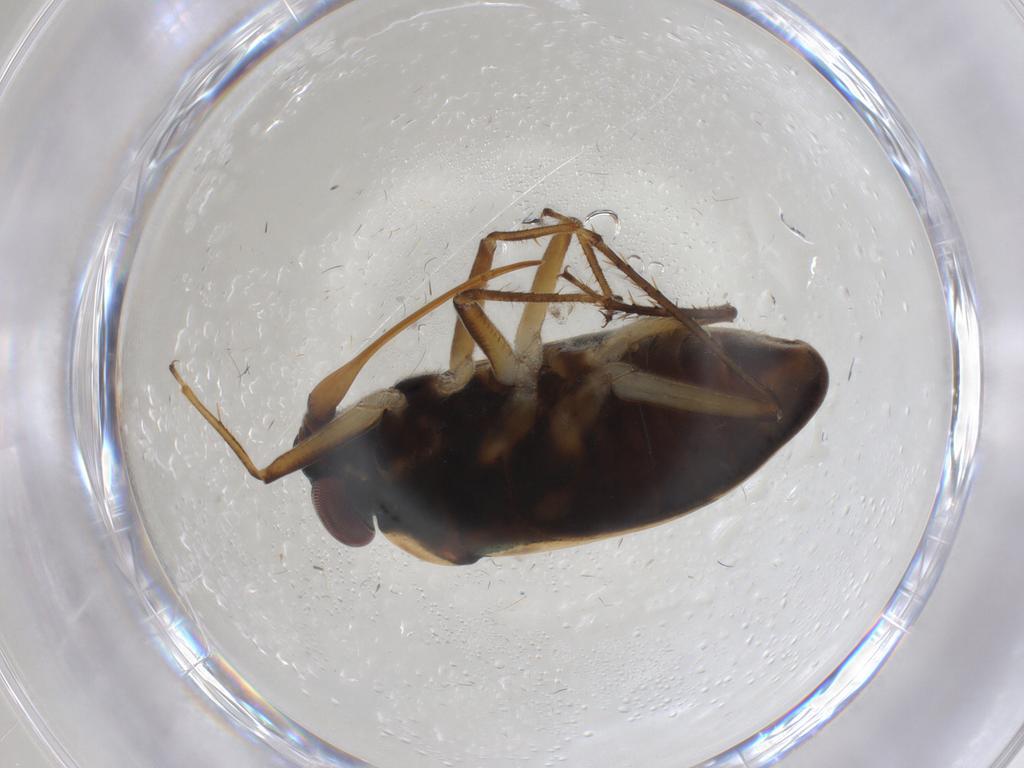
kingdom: Animalia
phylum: Arthropoda
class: Insecta
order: Hemiptera
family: Ochteridae
